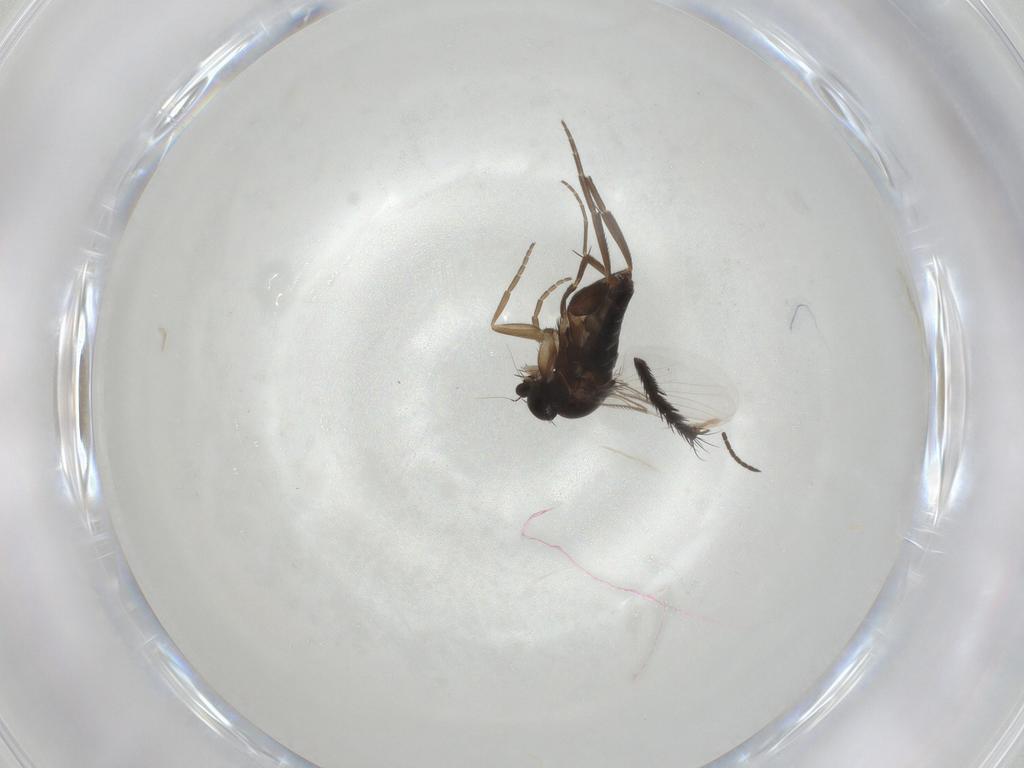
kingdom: Animalia
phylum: Arthropoda
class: Insecta
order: Diptera
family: Phoridae
